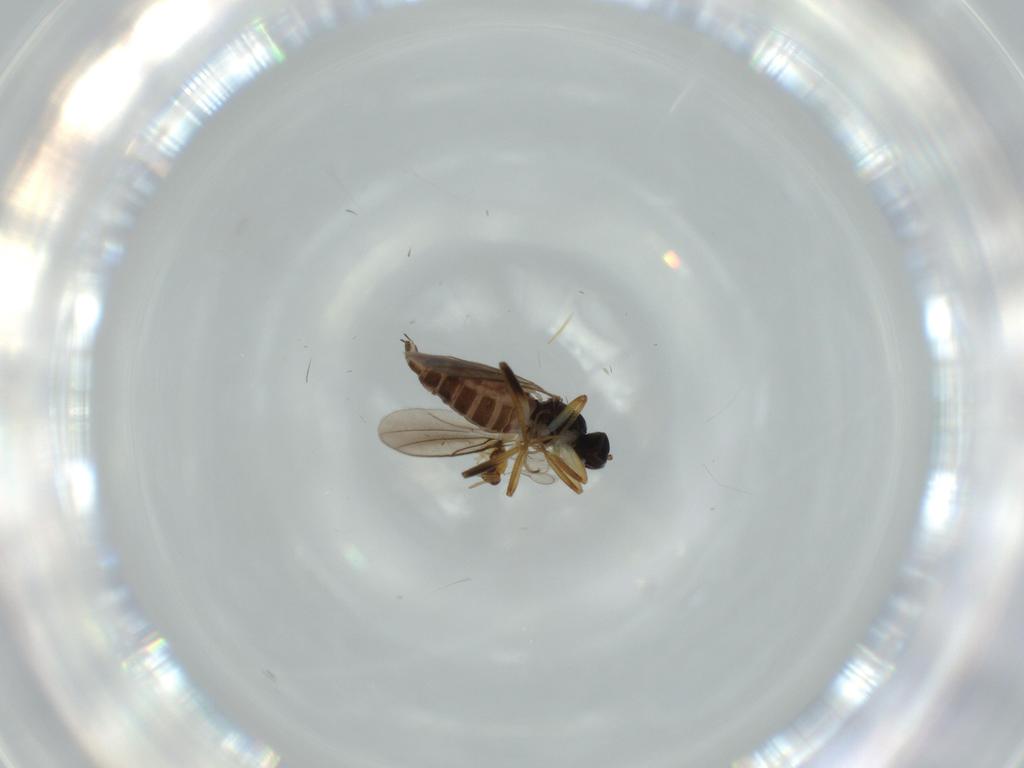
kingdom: Animalia
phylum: Arthropoda
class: Insecta
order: Diptera
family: Hybotidae
